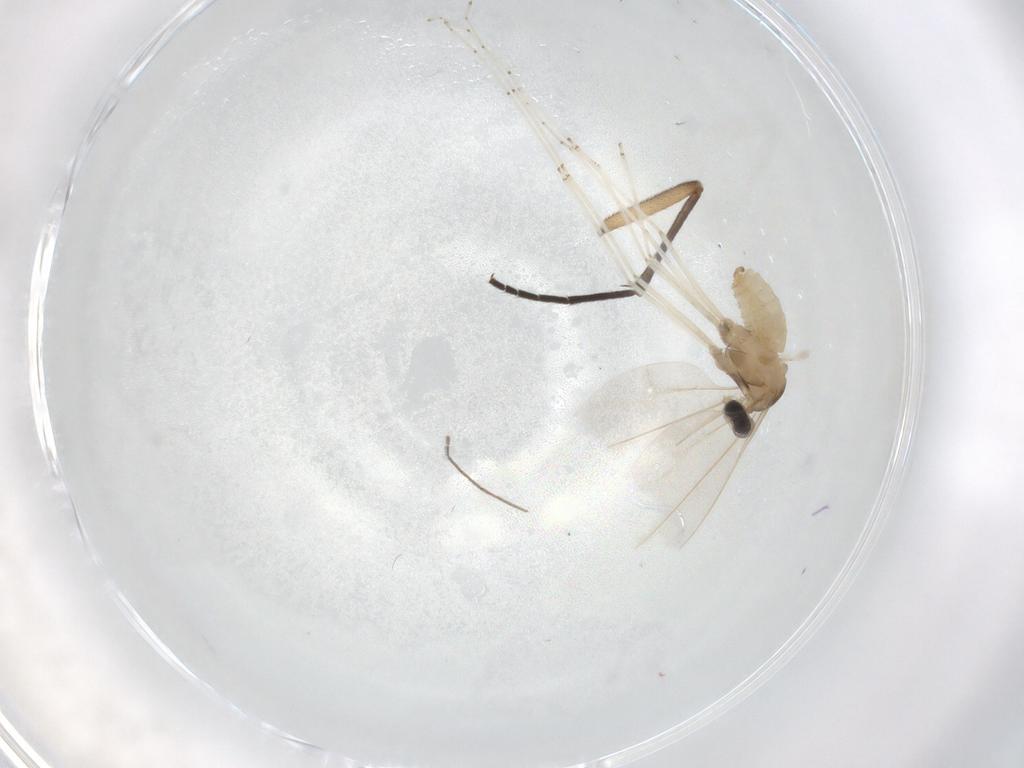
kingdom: Animalia
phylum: Arthropoda
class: Insecta
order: Diptera
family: Cecidomyiidae
